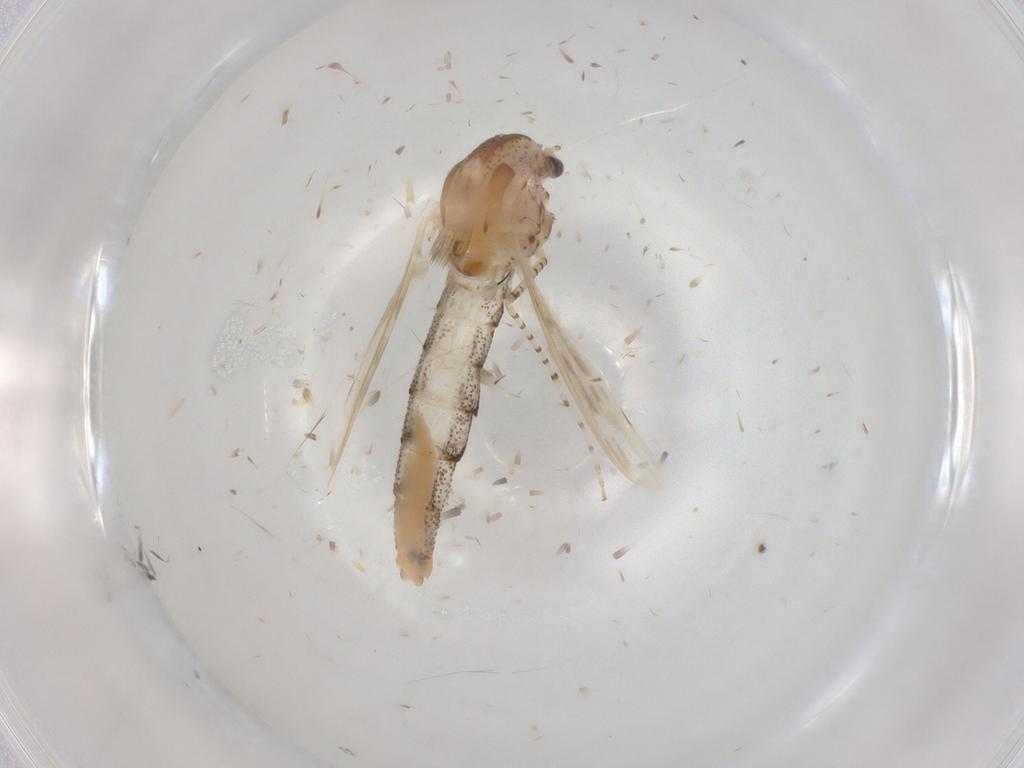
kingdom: Animalia
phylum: Arthropoda
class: Insecta
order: Diptera
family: Chaoboridae
